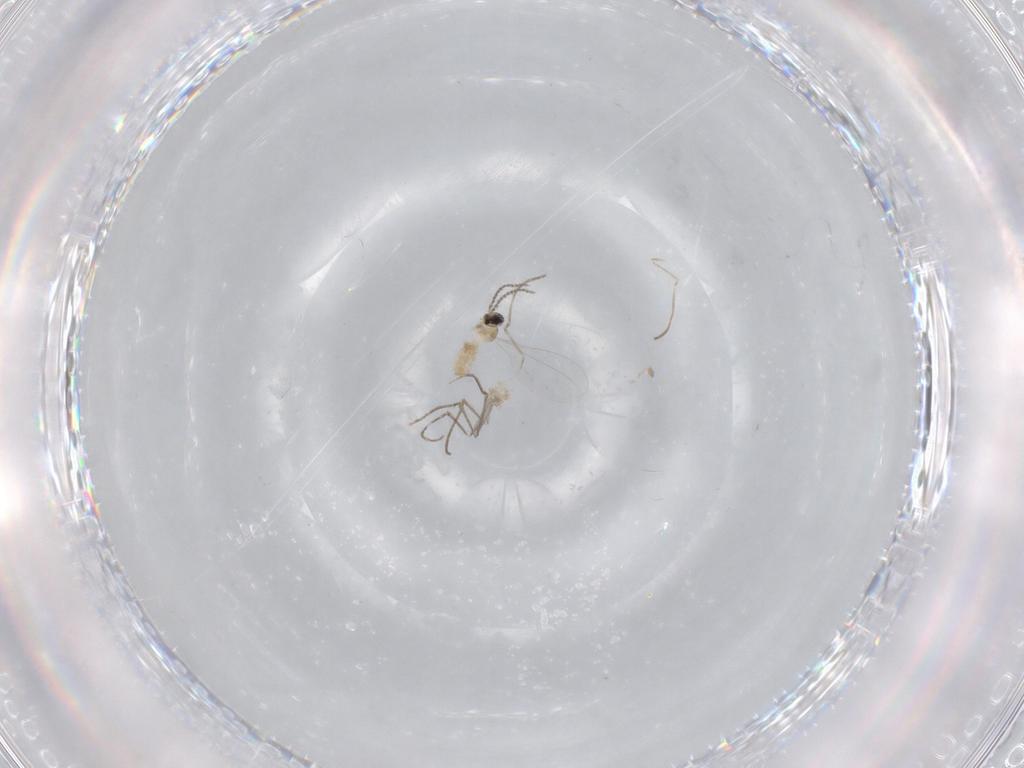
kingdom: Animalia
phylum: Arthropoda
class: Insecta
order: Diptera
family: Cecidomyiidae
